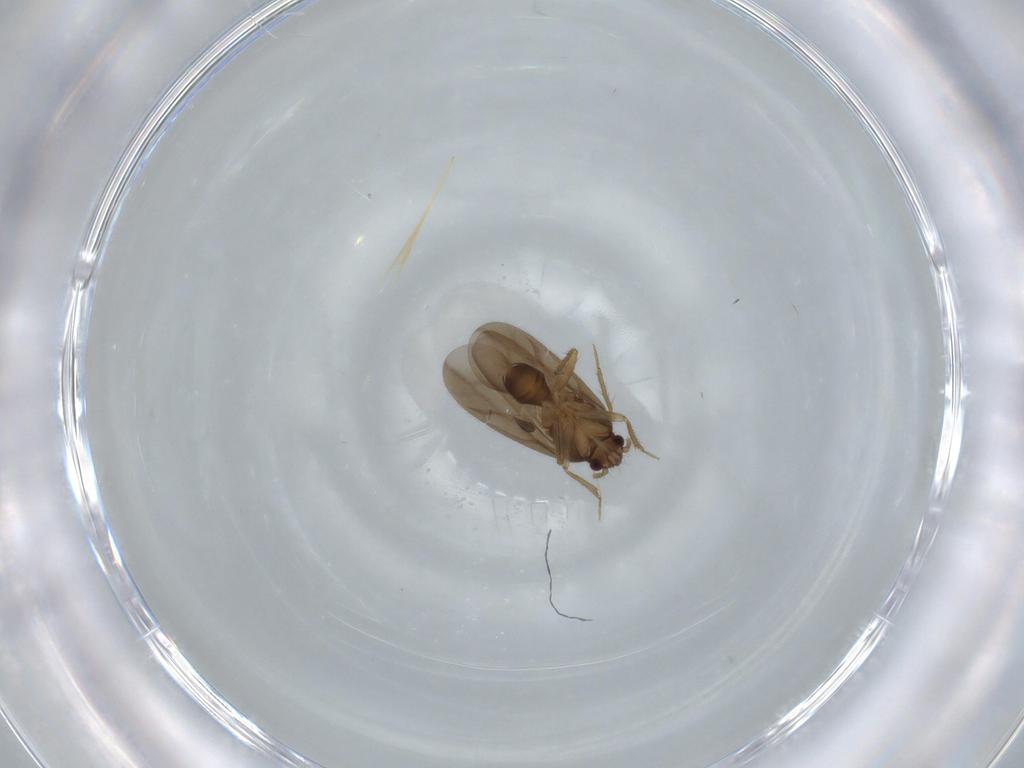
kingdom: Animalia
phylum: Arthropoda
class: Insecta
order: Hemiptera
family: Ceratocombidae
